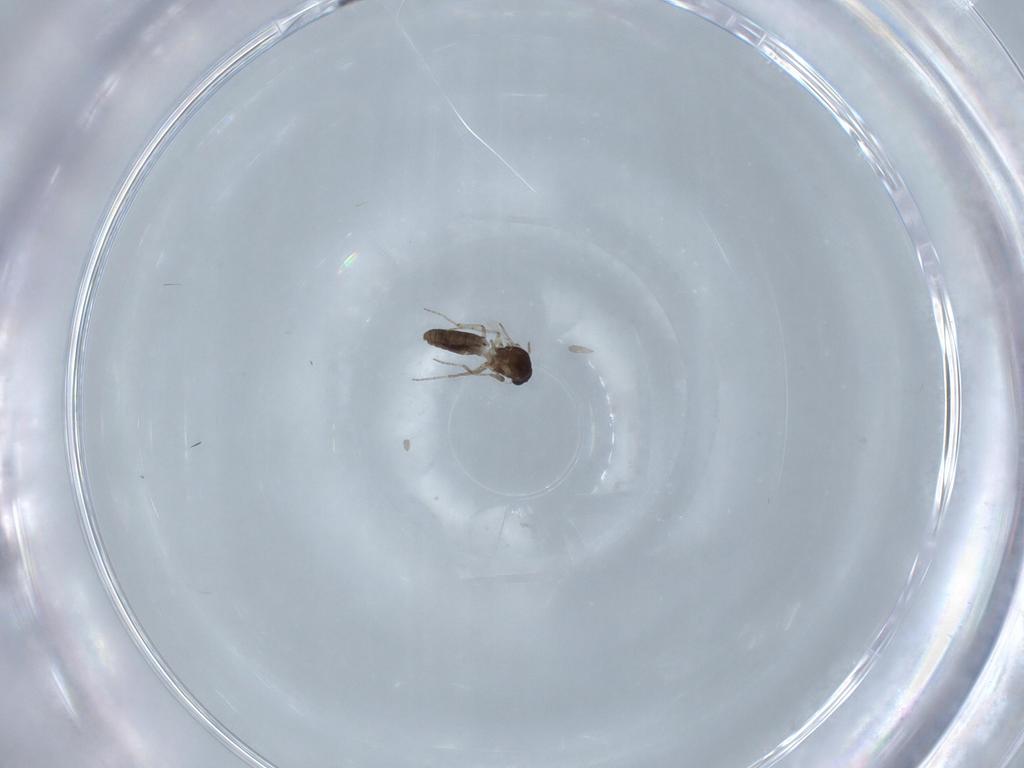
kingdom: Animalia
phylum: Arthropoda
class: Insecta
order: Diptera
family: Ceratopogonidae
